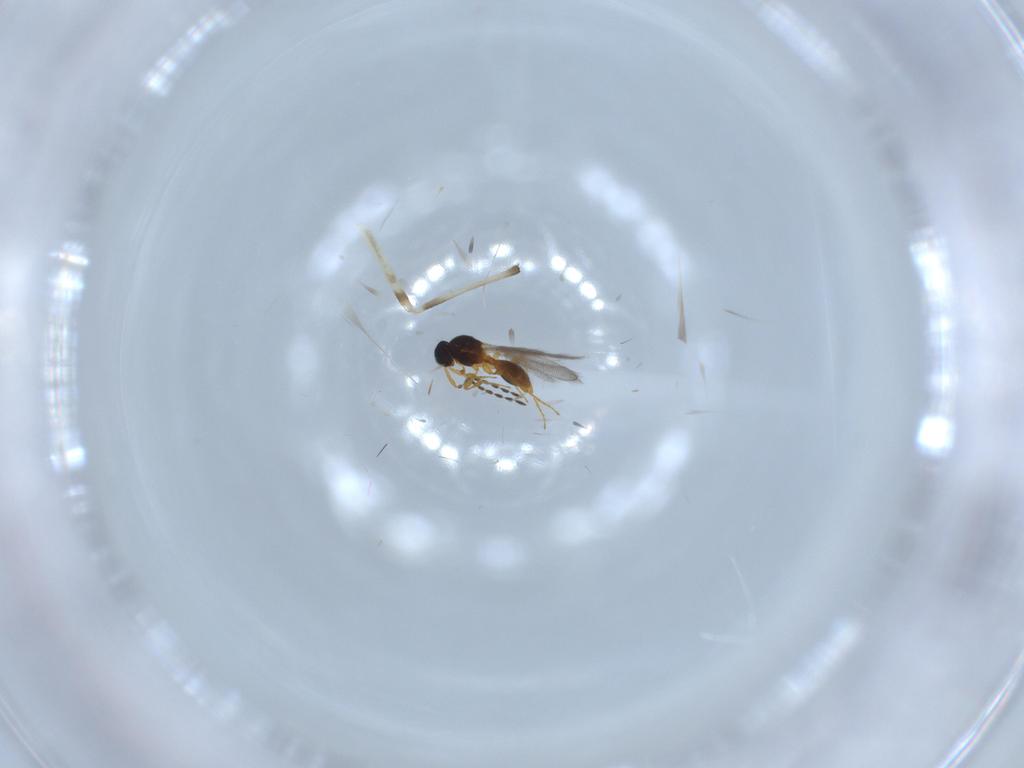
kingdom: Animalia
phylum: Arthropoda
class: Insecta
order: Hymenoptera
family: Platygastridae
